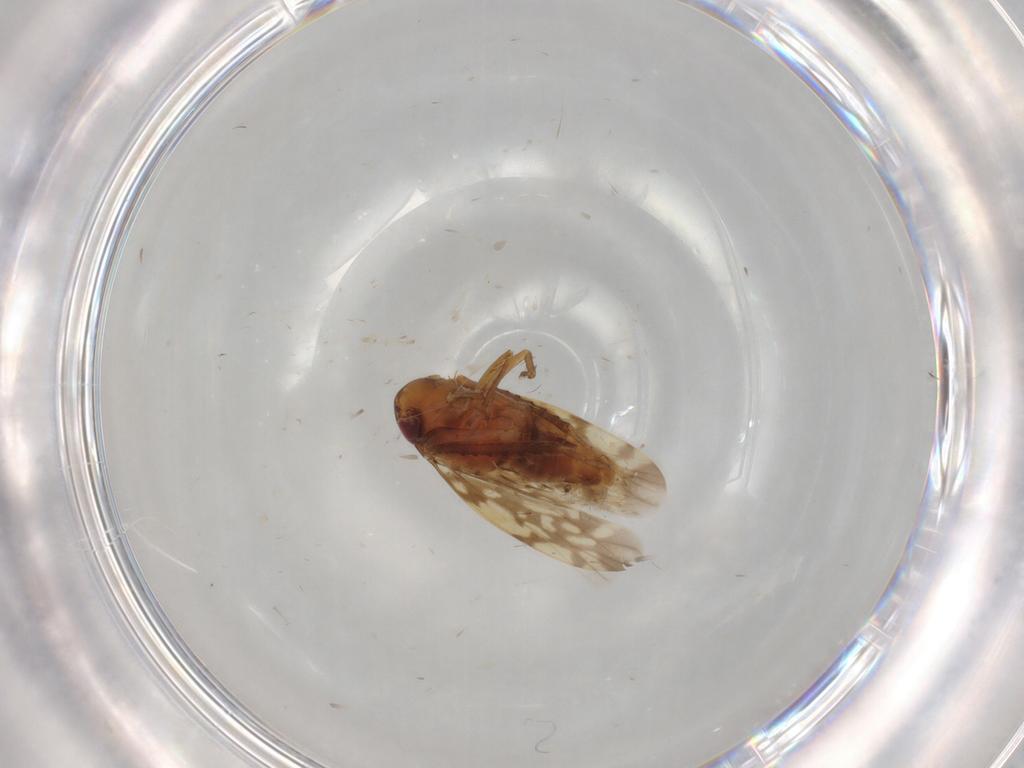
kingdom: Animalia
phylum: Arthropoda
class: Insecta
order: Hemiptera
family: Cicadellidae
